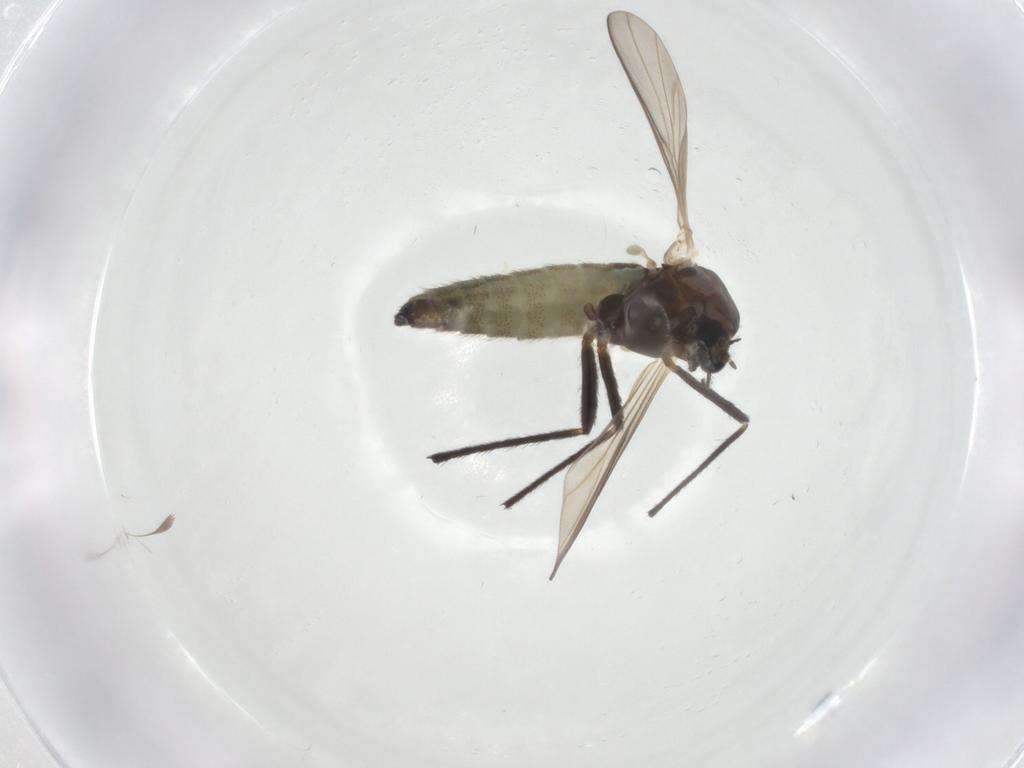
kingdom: Animalia
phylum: Arthropoda
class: Insecta
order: Diptera
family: Chironomidae
